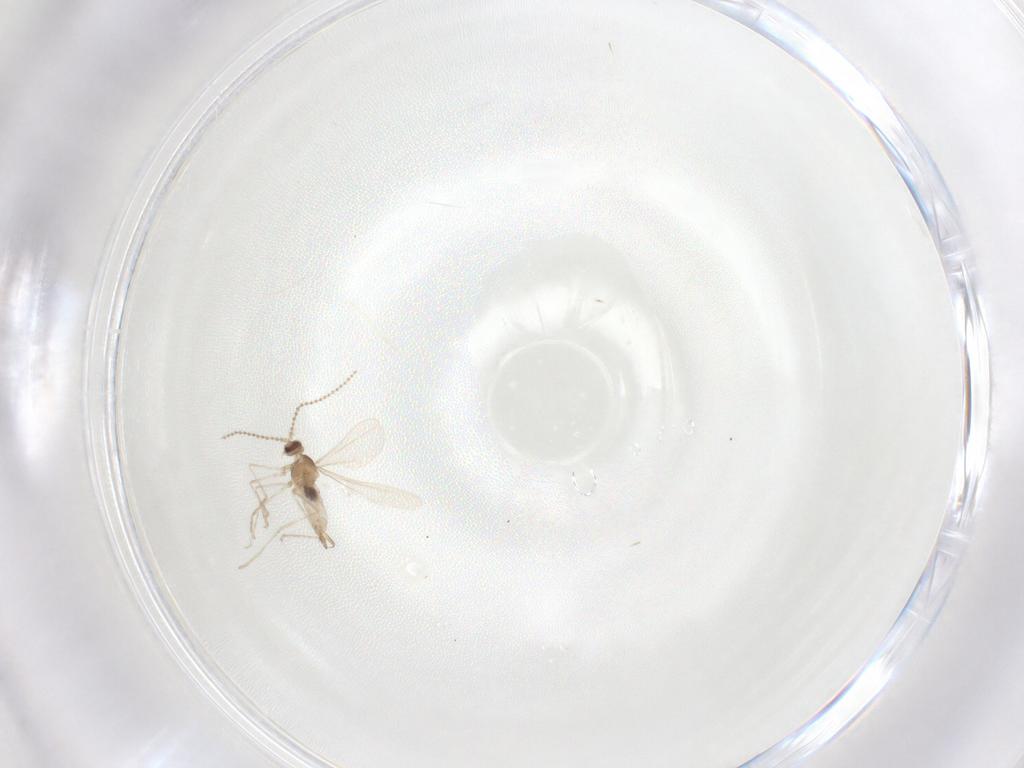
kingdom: Animalia
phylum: Arthropoda
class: Insecta
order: Diptera
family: Cecidomyiidae
